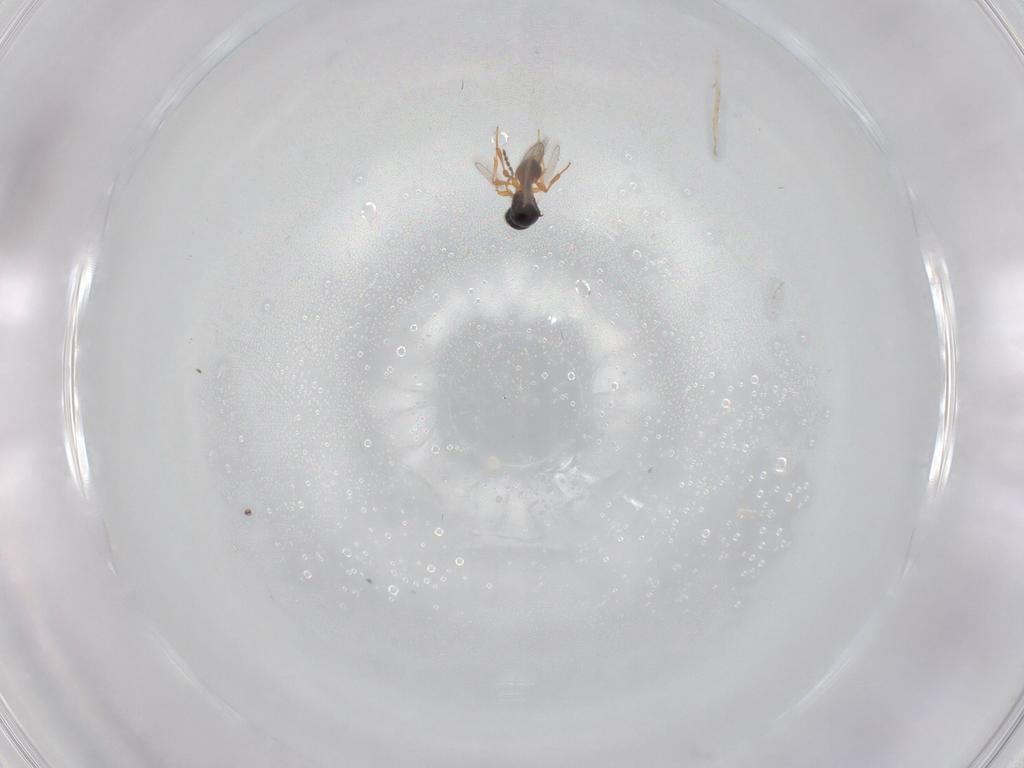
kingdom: Animalia
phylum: Arthropoda
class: Insecta
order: Hymenoptera
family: Platygastridae
